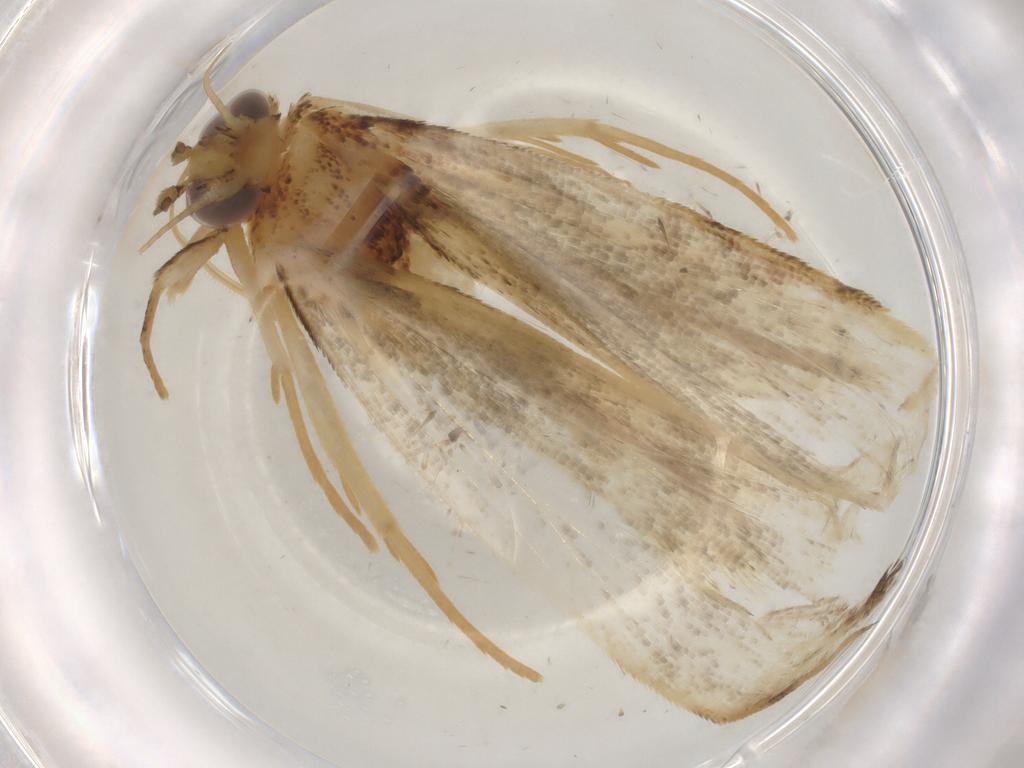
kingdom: Animalia
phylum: Arthropoda
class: Insecta
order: Lepidoptera
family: Erebidae
